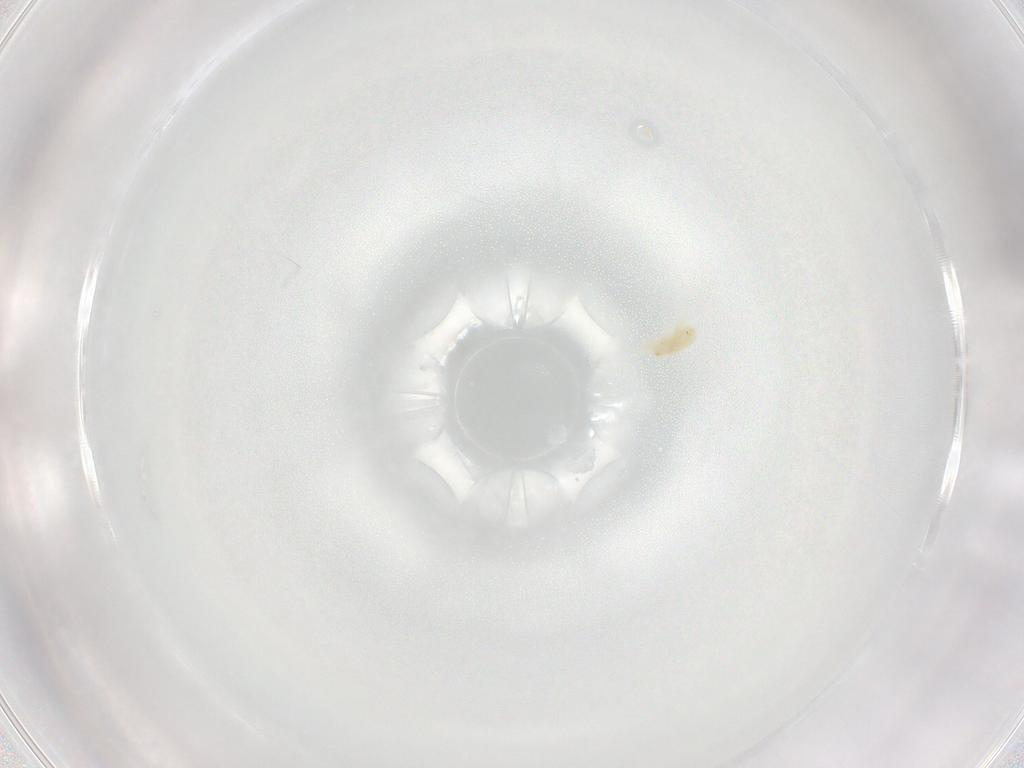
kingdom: Animalia
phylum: Arthropoda
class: Arachnida
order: Trombidiformes
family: Eupodidae
